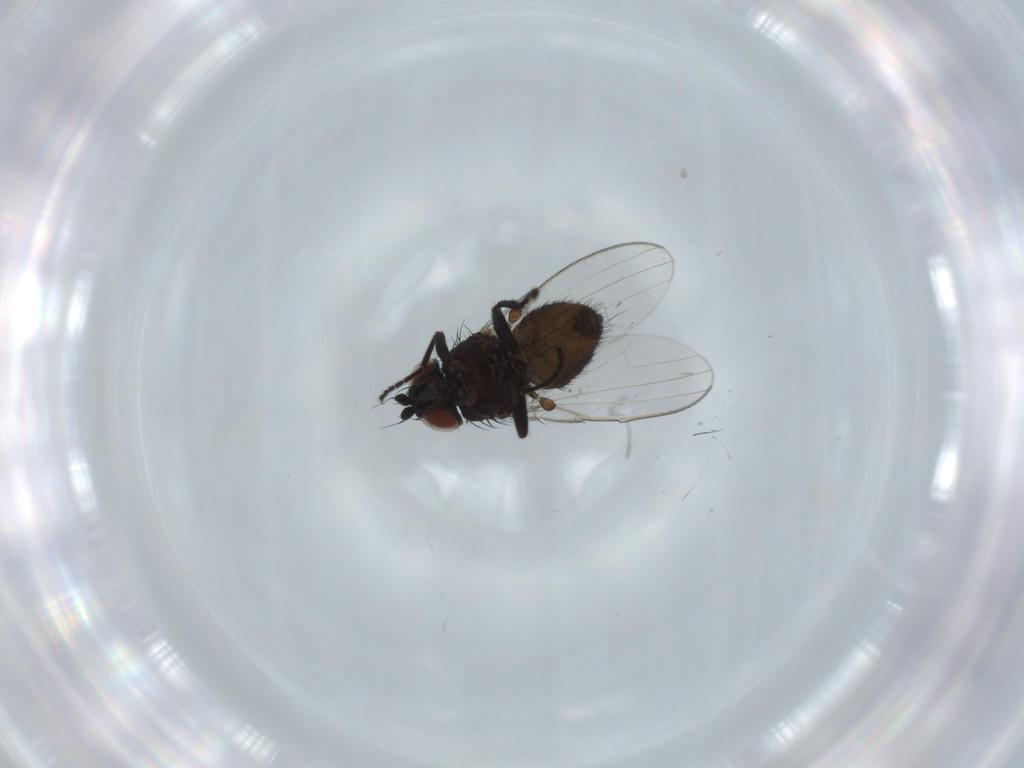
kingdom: Animalia
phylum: Arthropoda
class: Insecta
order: Diptera
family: Milichiidae
